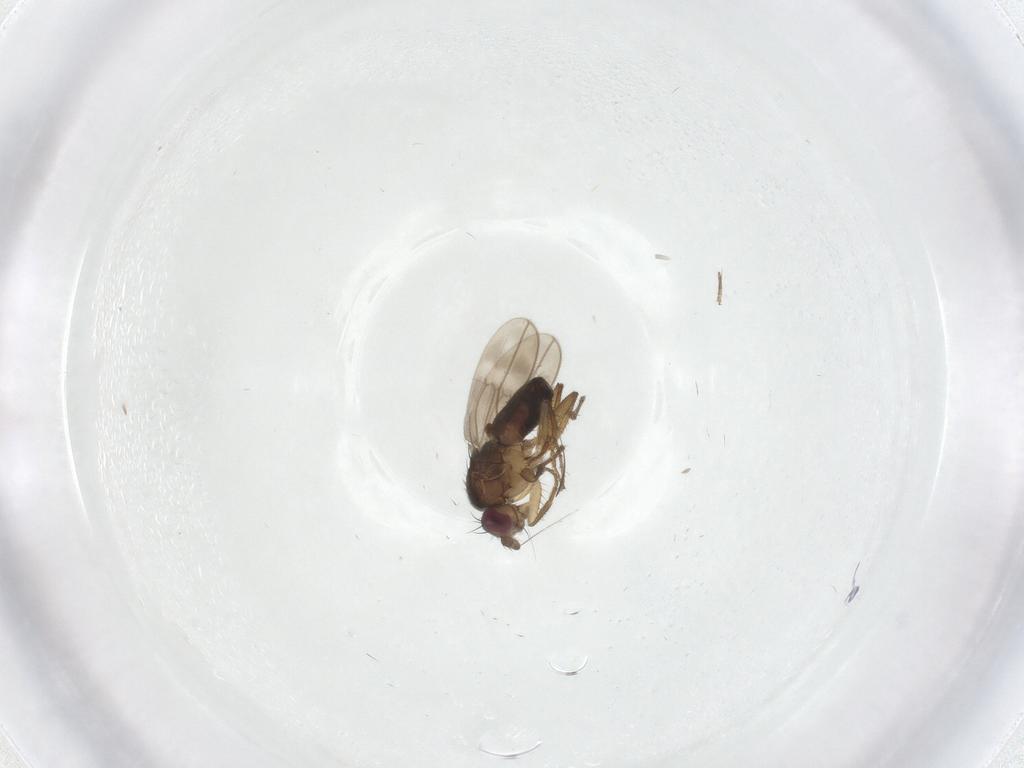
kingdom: Animalia
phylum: Arthropoda
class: Insecta
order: Diptera
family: Sphaeroceridae
